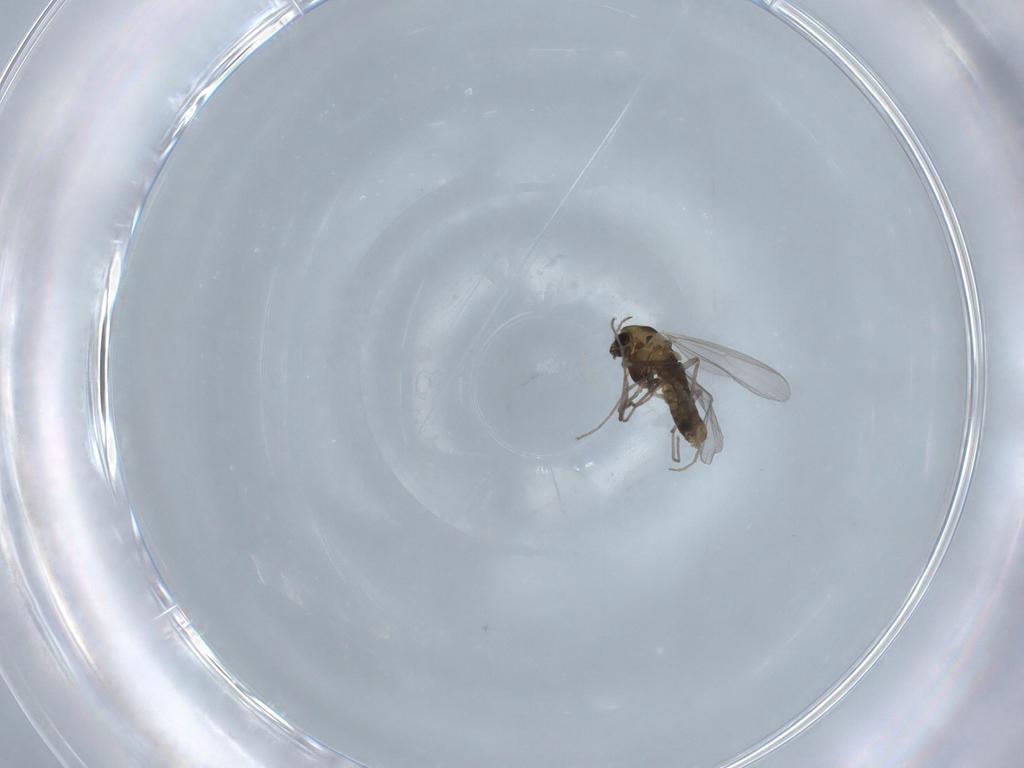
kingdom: Animalia
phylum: Arthropoda
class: Insecta
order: Diptera
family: Chironomidae
